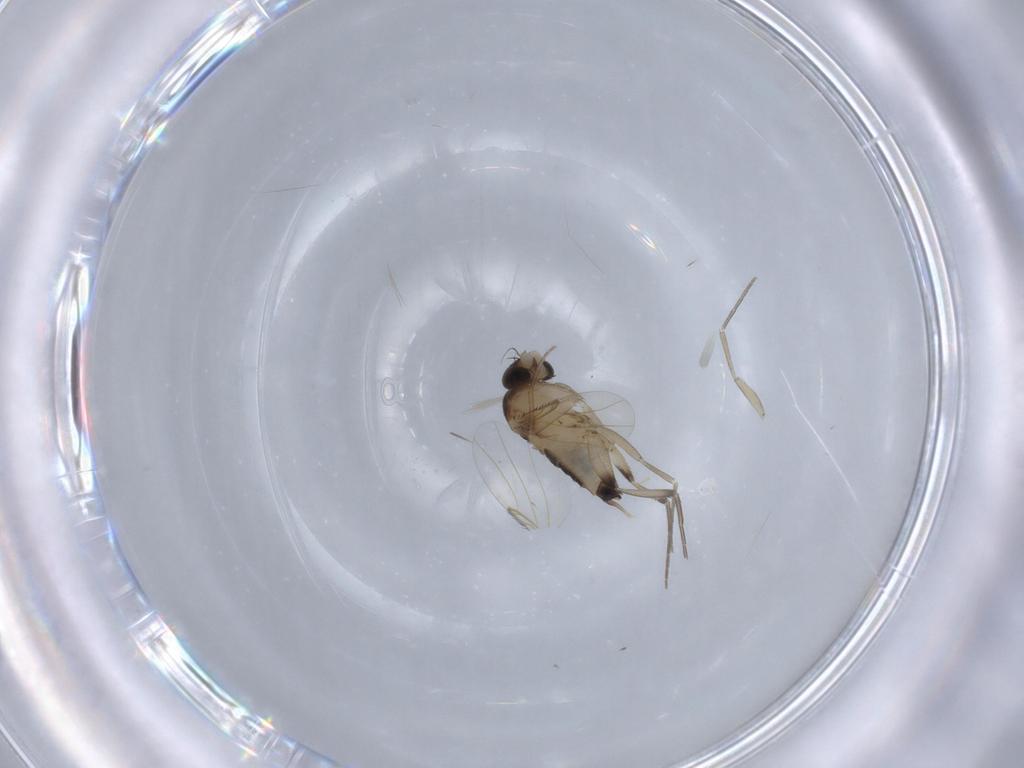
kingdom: Animalia
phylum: Arthropoda
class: Insecta
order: Diptera
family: Phoridae
